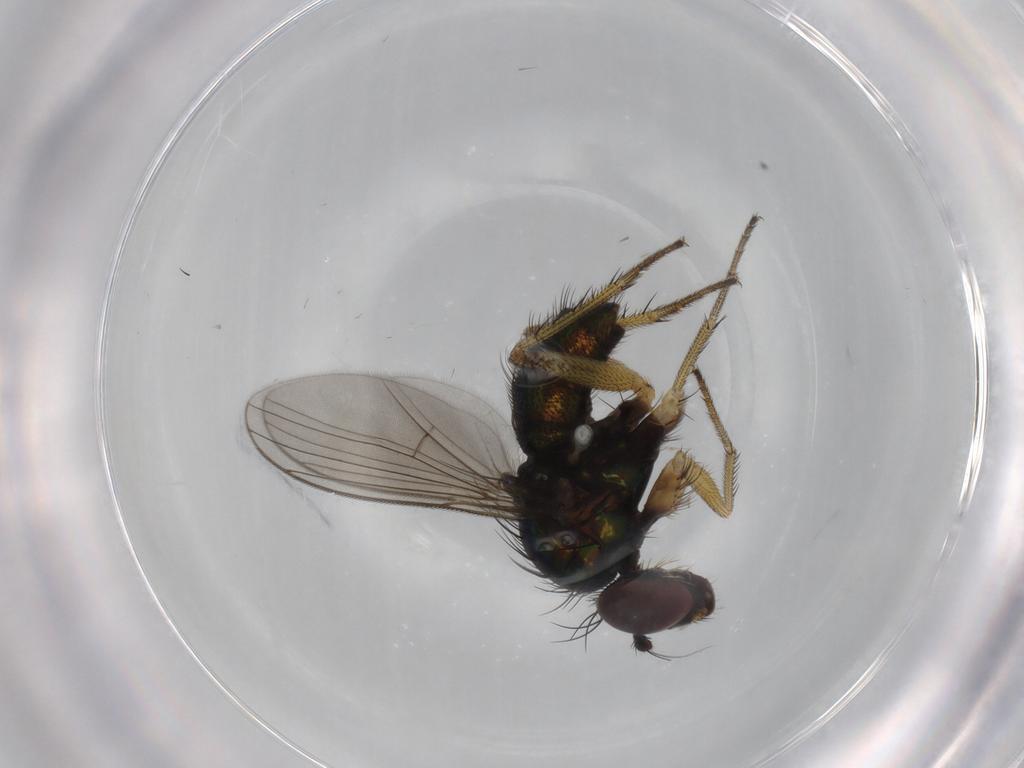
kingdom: Animalia
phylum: Arthropoda
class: Insecta
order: Diptera
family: Dolichopodidae
